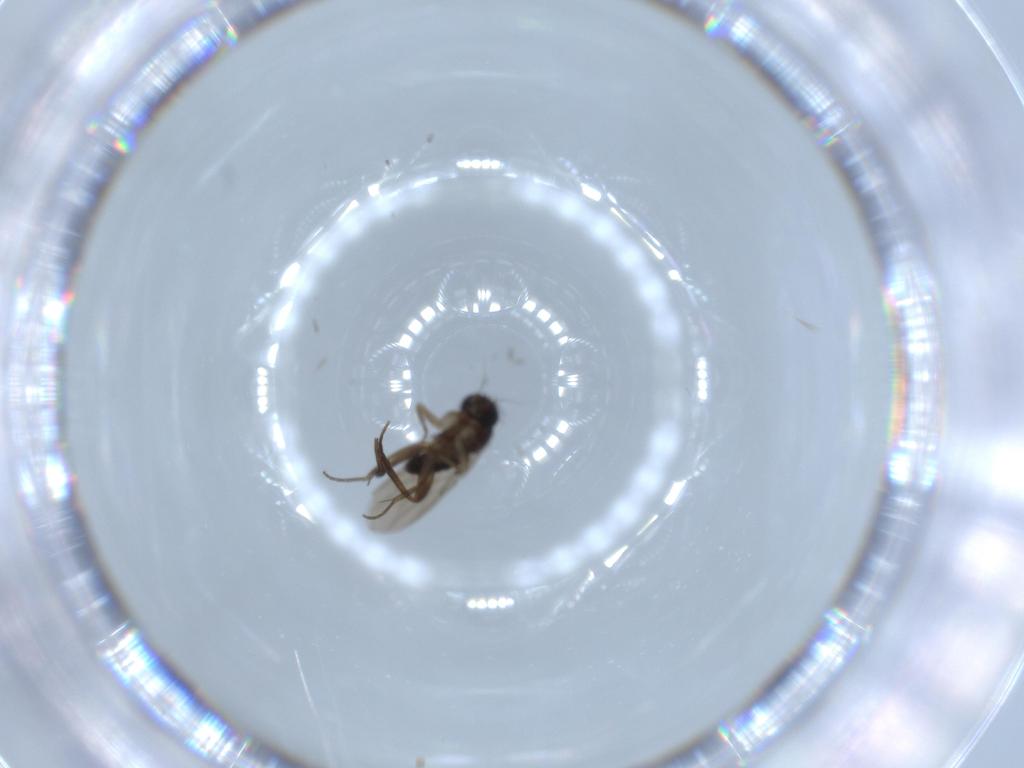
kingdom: Animalia
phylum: Arthropoda
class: Insecta
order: Diptera
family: Phoridae
